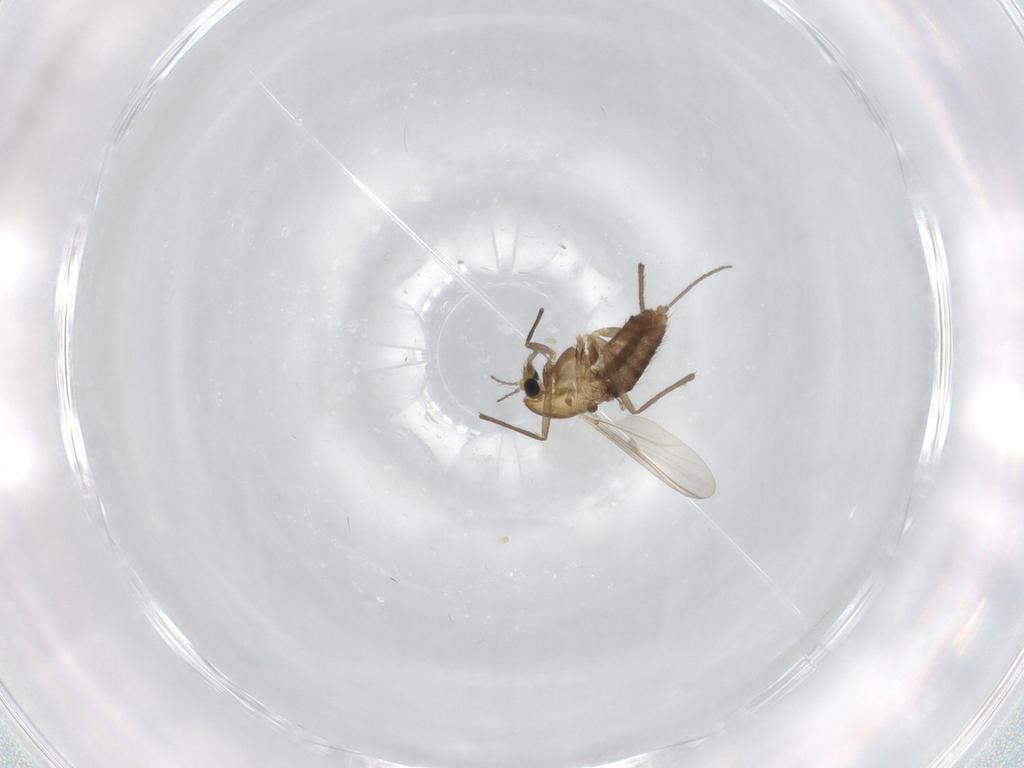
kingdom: Animalia
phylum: Arthropoda
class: Insecta
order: Diptera
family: Chironomidae
